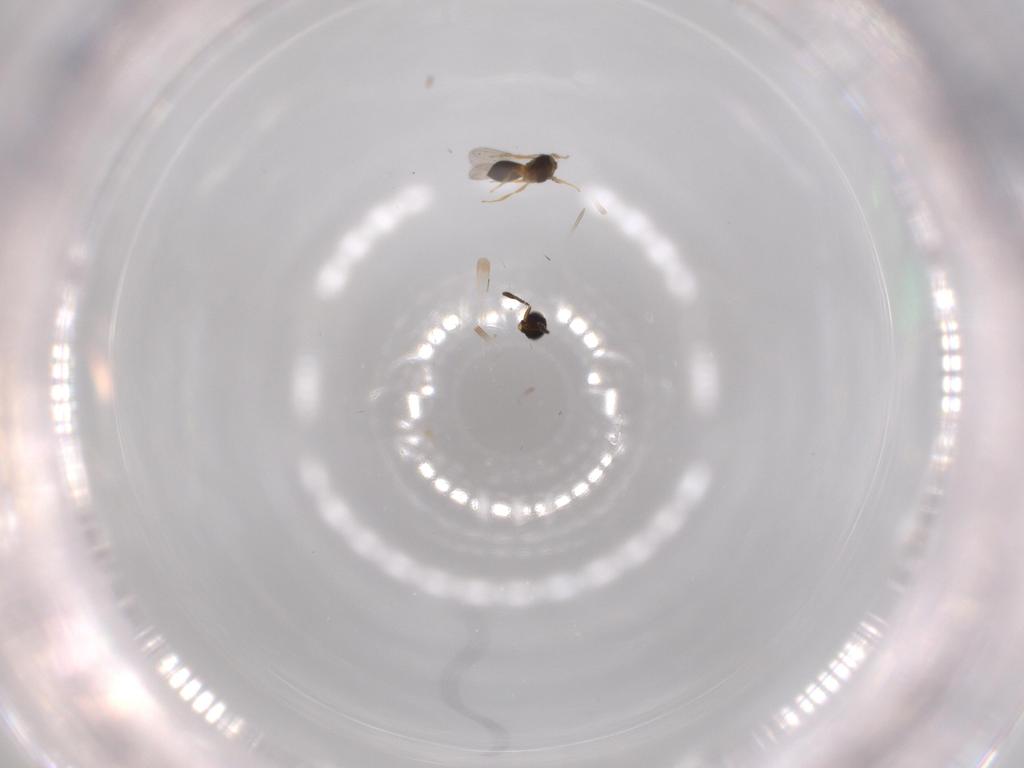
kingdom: Animalia
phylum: Arthropoda
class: Insecta
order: Hymenoptera
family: Scelionidae
